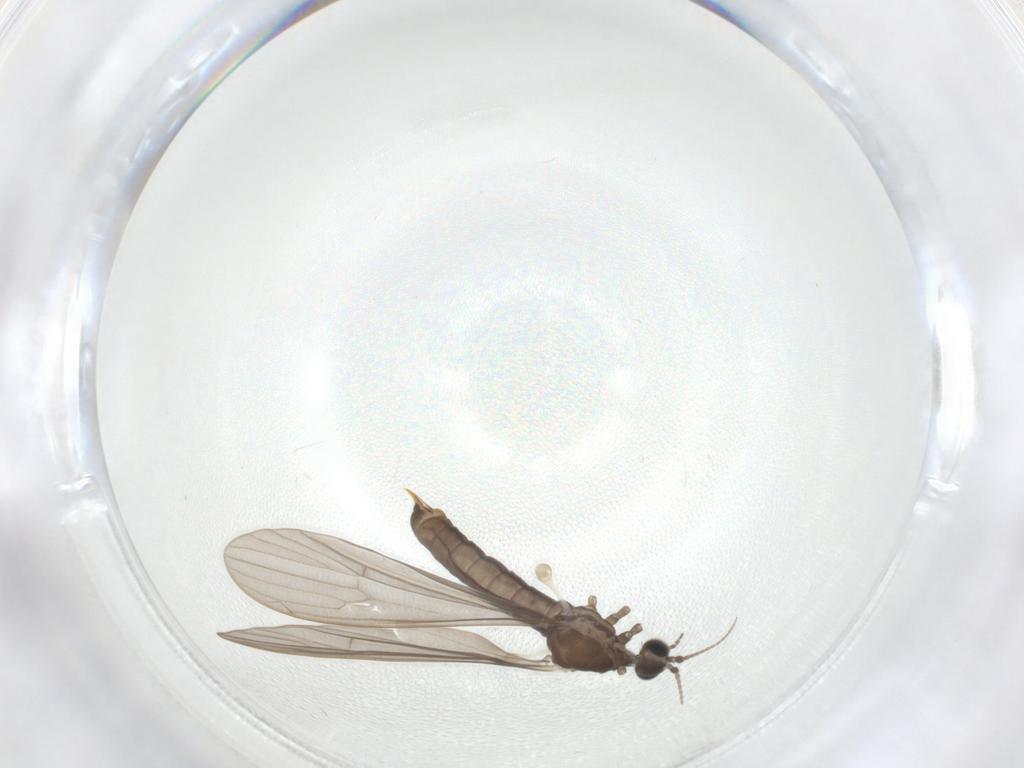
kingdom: Animalia
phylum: Arthropoda
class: Insecta
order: Diptera
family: Limoniidae
